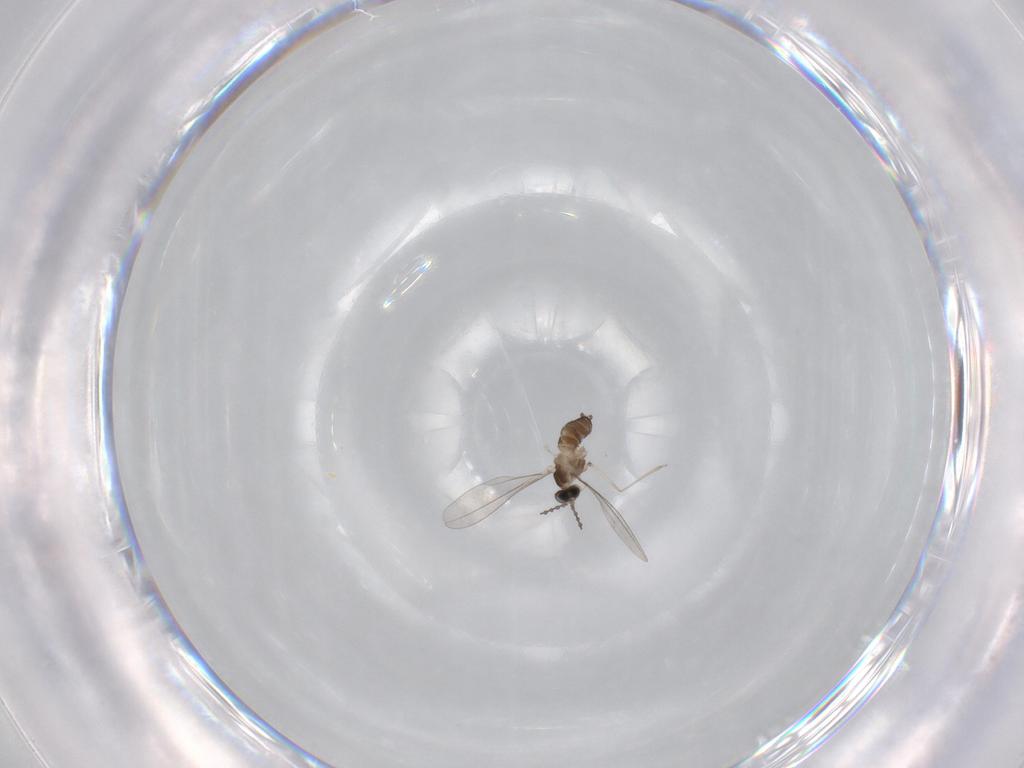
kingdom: Animalia
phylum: Arthropoda
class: Insecta
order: Diptera
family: Cecidomyiidae
